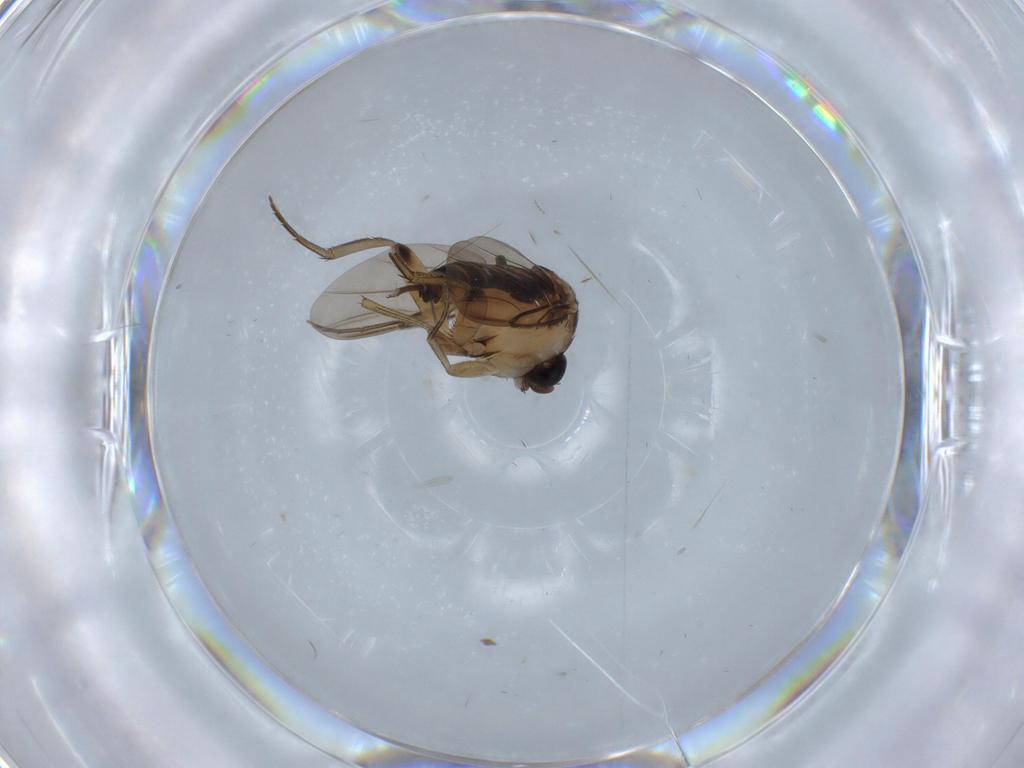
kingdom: Animalia
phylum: Arthropoda
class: Insecta
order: Diptera
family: Phoridae
